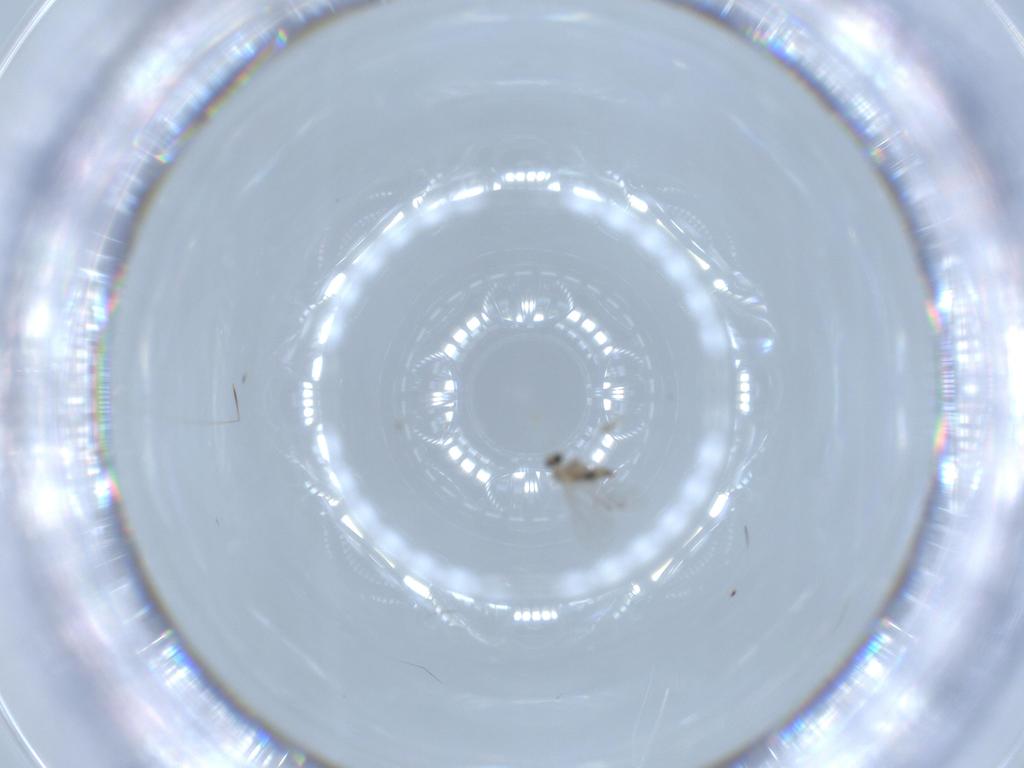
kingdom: Animalia
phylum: Arthropoda
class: Insecta
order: Diptera
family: Cecidomyiidae
